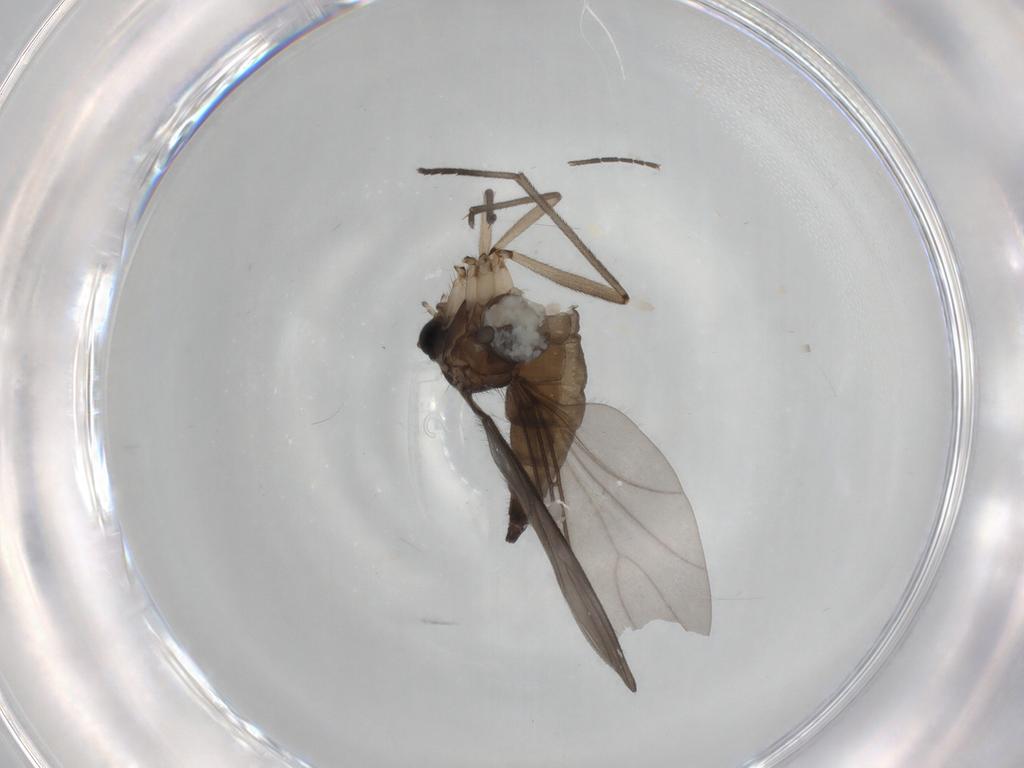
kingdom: Animalia
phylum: Arthropoda
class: Insecta
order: Diptera
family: Sciaridae
